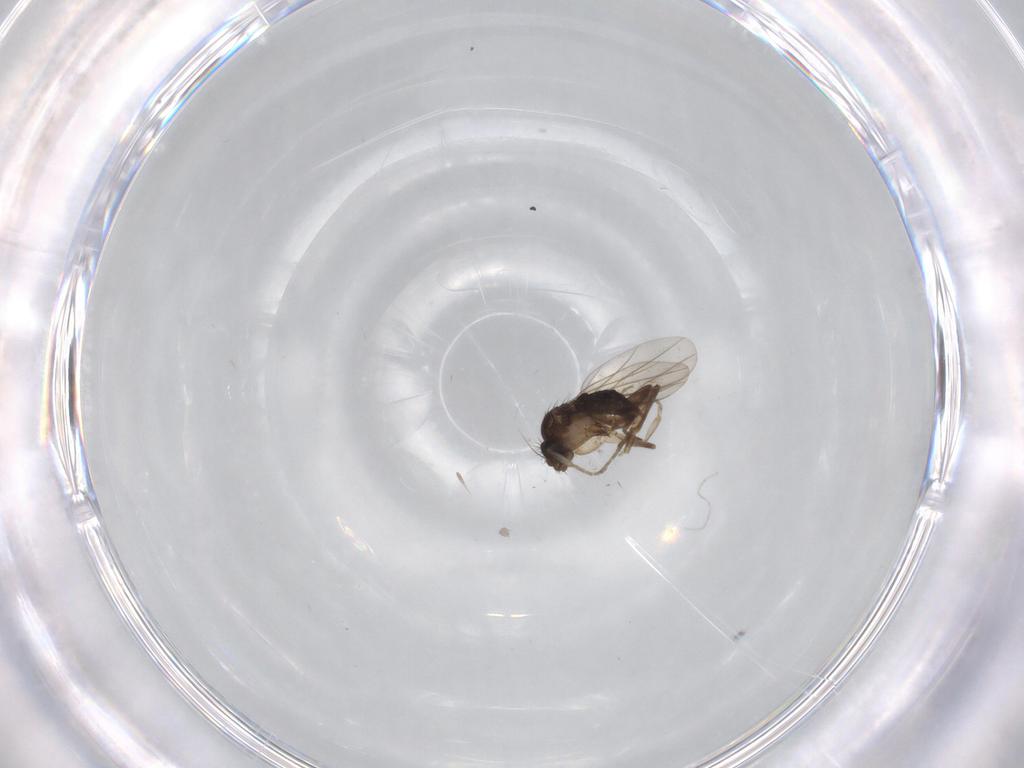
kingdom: Animalia
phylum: Arthropoda
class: Insecta
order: Diptera
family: Phoridae
